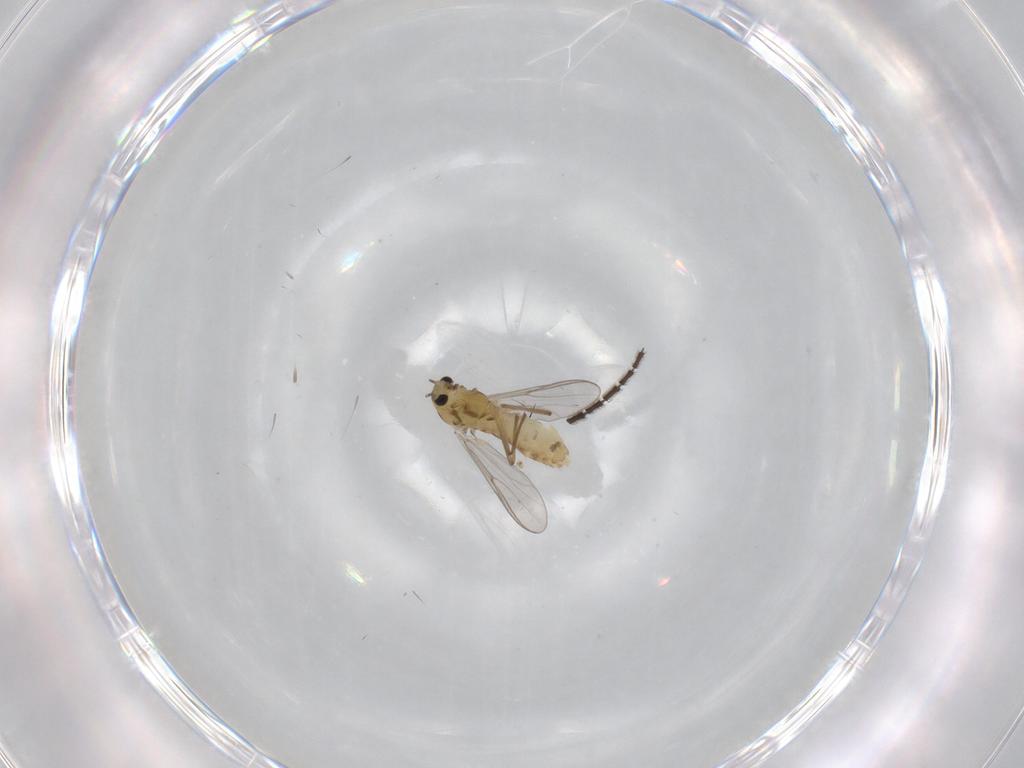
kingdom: Animalia
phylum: Arthropoda
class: Insecta
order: Diptera
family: Chironomidae
